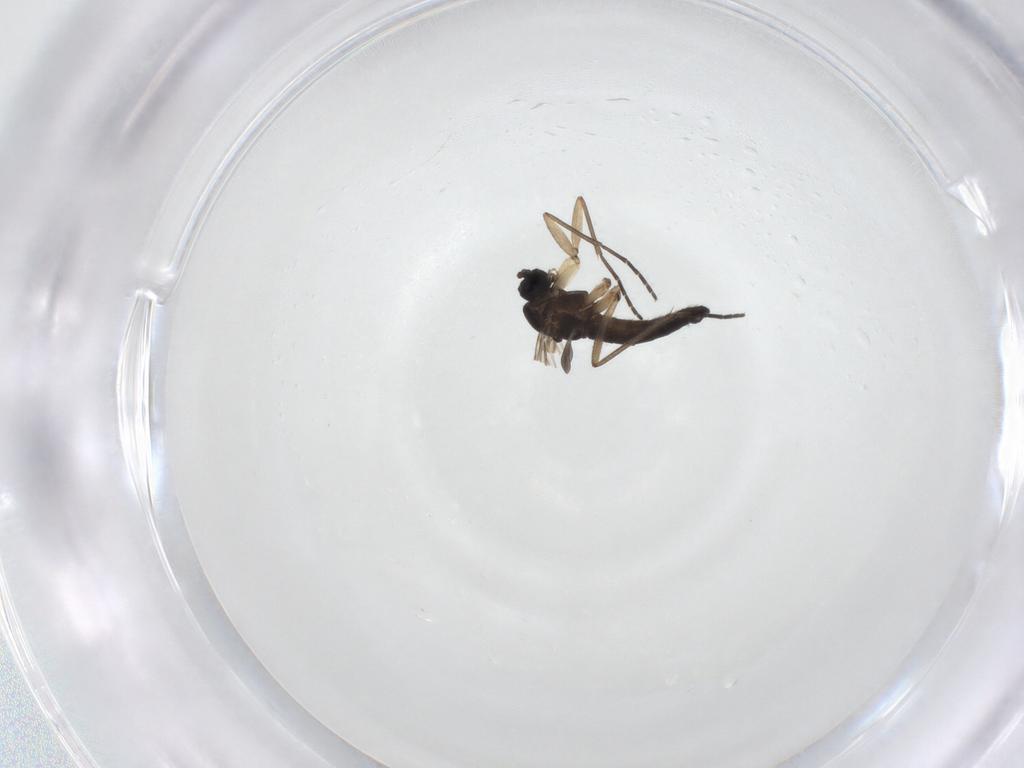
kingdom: Animalia
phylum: Arthropoda
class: Insecta
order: Diptera
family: Sciaridae
